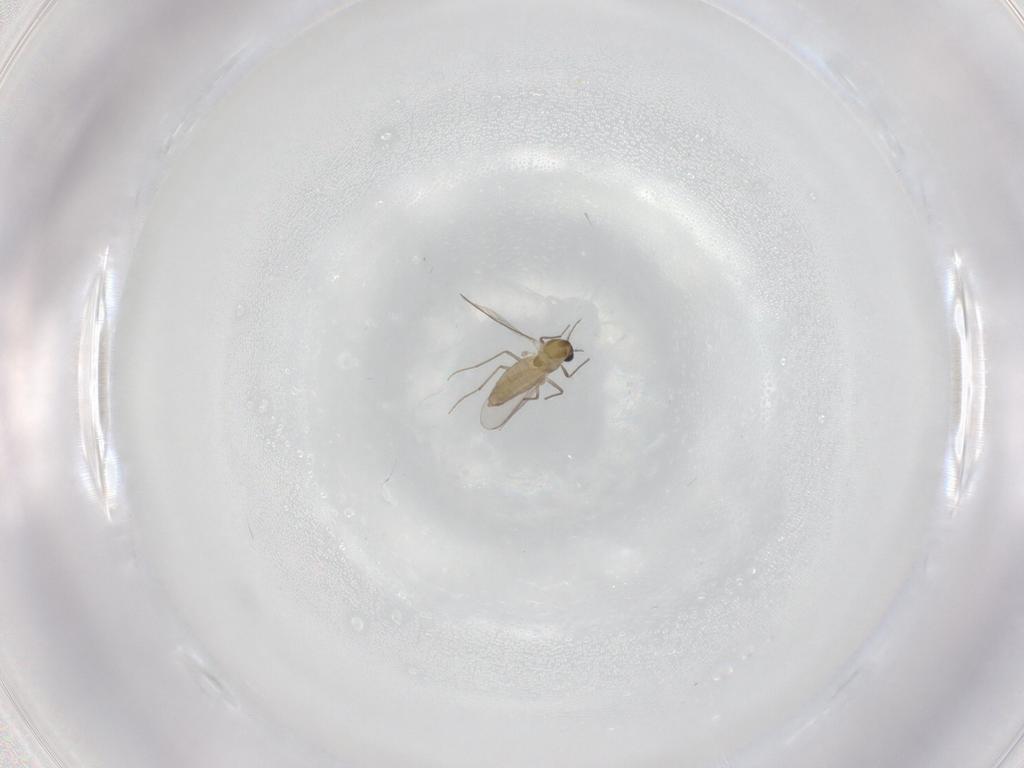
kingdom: Animalia
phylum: Arthropoda
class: Insecta
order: Diptera
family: Chironomidae
